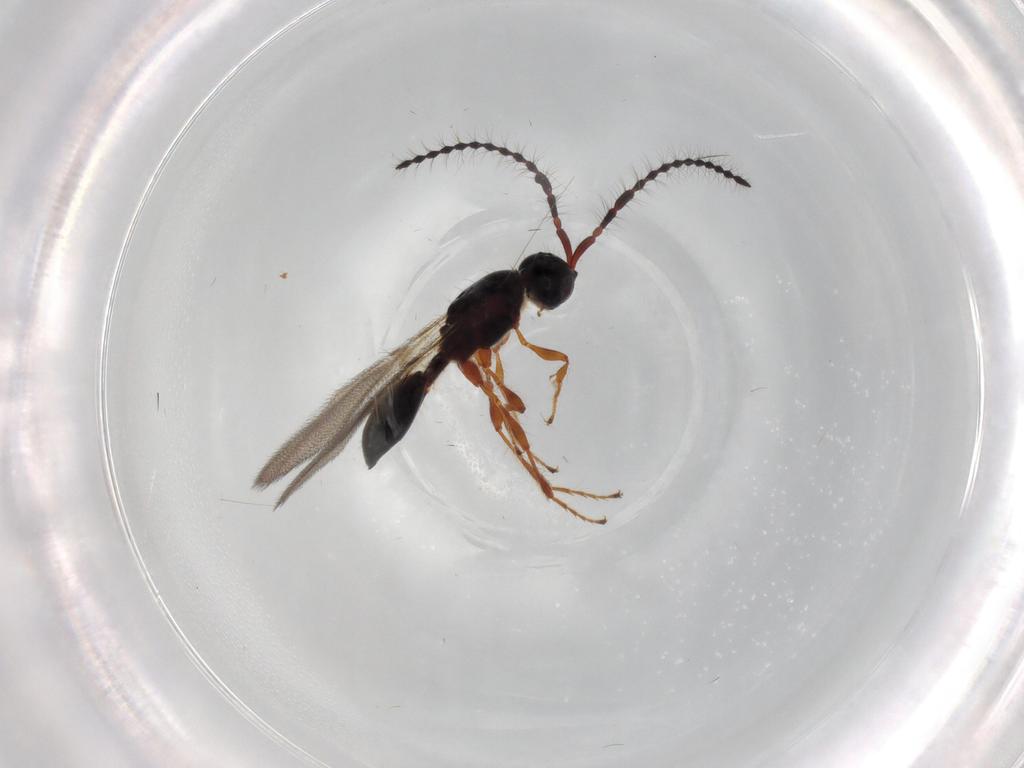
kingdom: Animalia
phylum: Arthropoda
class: Insecta
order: Hymenoptera
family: Diapriidae
